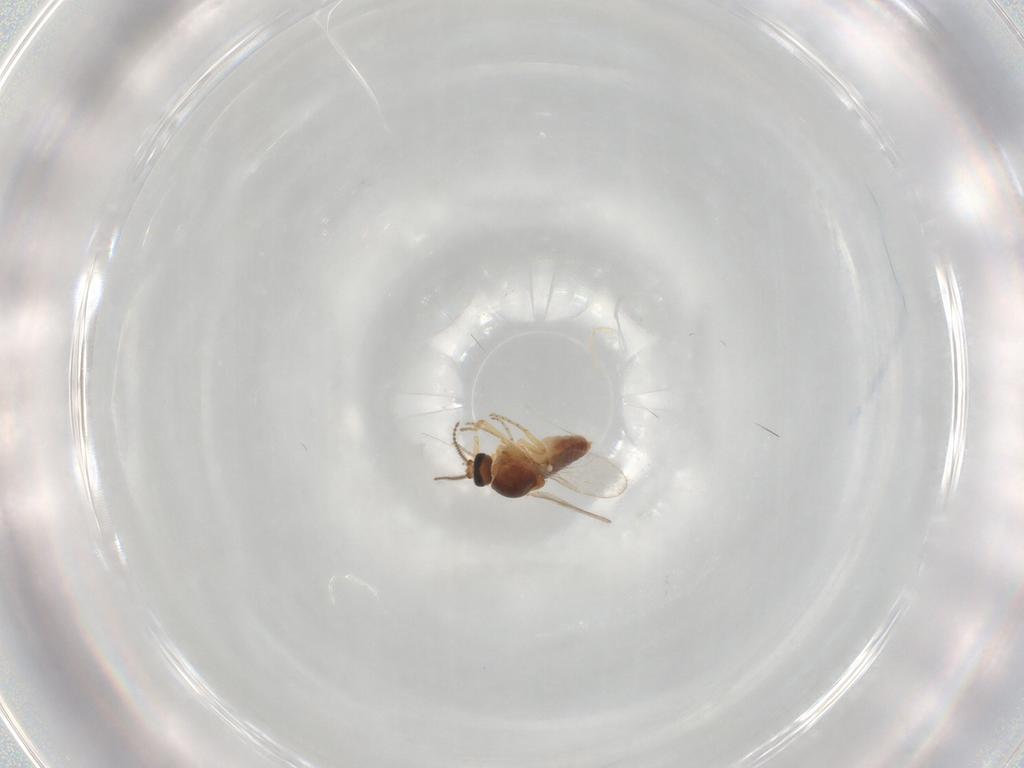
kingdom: Animalia
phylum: Arthropoda
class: Insecta
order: Diptera
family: Ceratopogonidae
